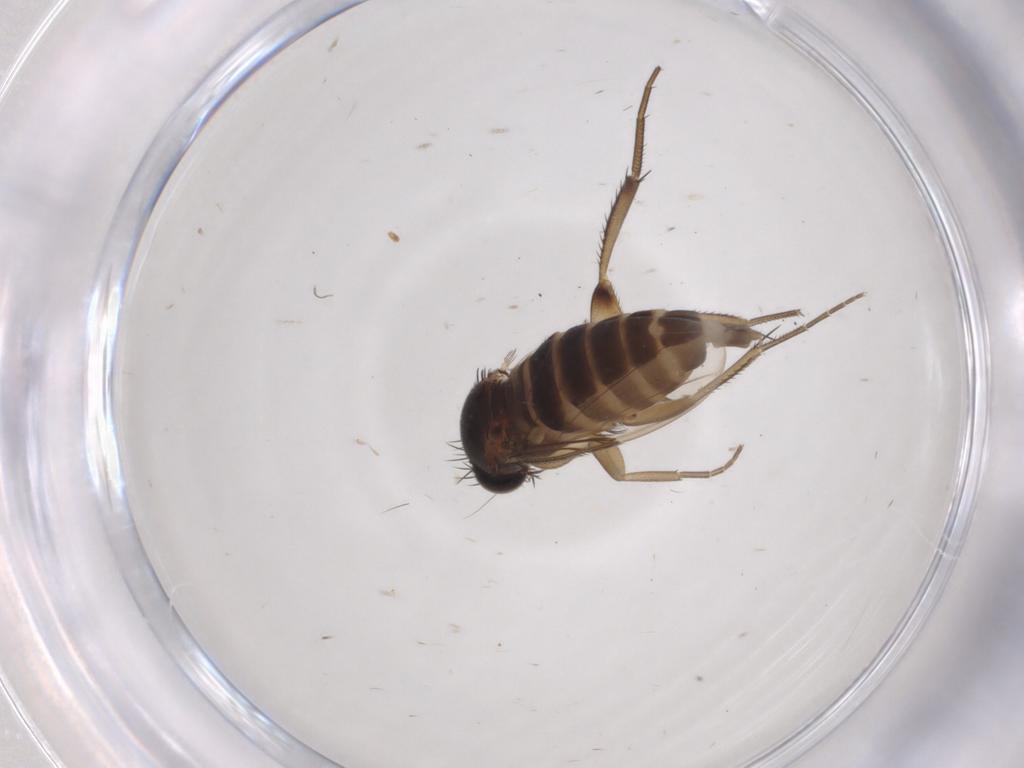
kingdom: Animalia
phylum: Arthropoda
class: Insecta
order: Diptera
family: Phoridae
